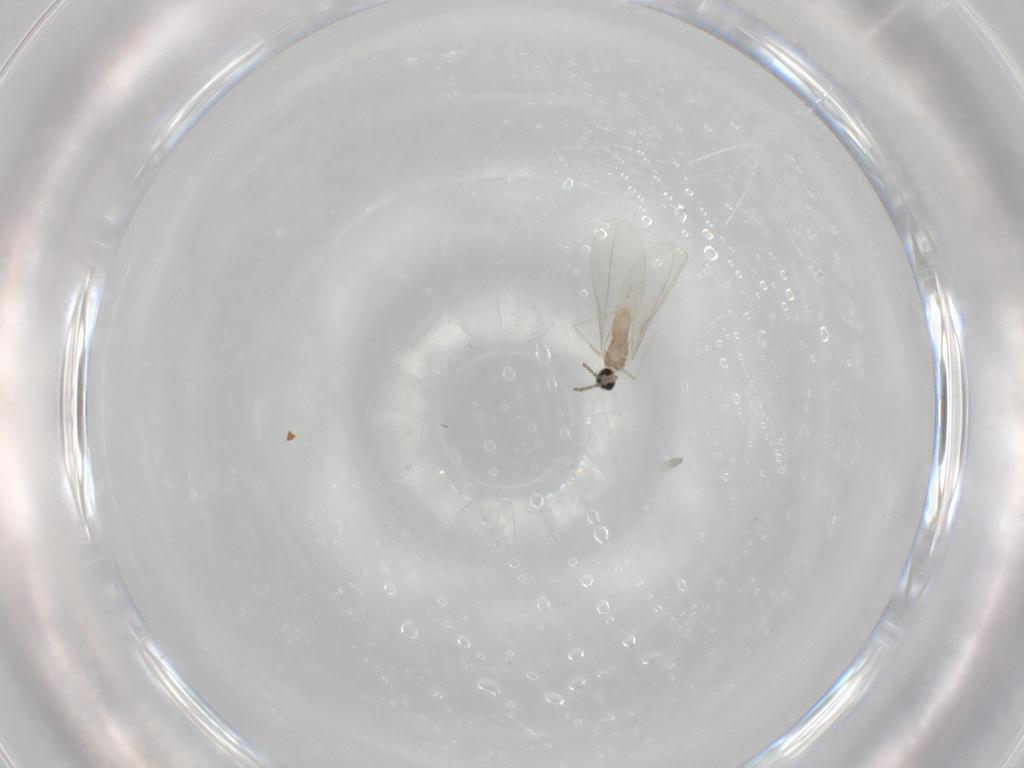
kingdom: Animalia
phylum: Arthropoda
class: Insecta
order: Diptera
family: Cecidomyiidae
